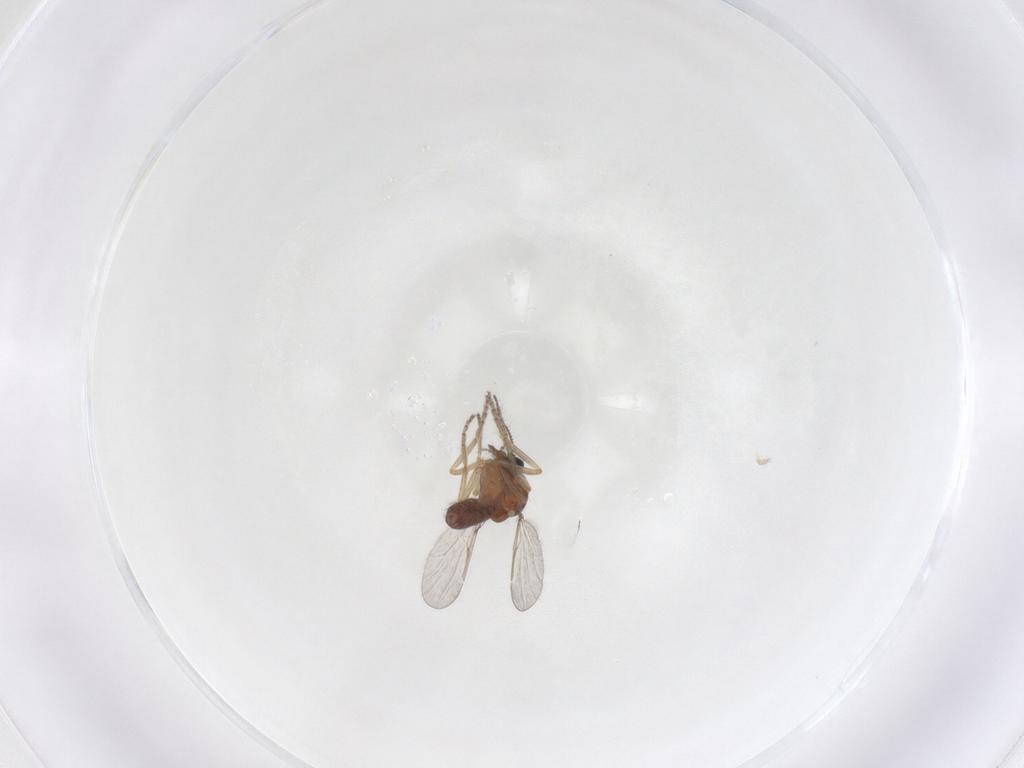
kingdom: Animalia
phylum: Arthropoda
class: Insecta
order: Diptera
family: Ceratopogonidae
